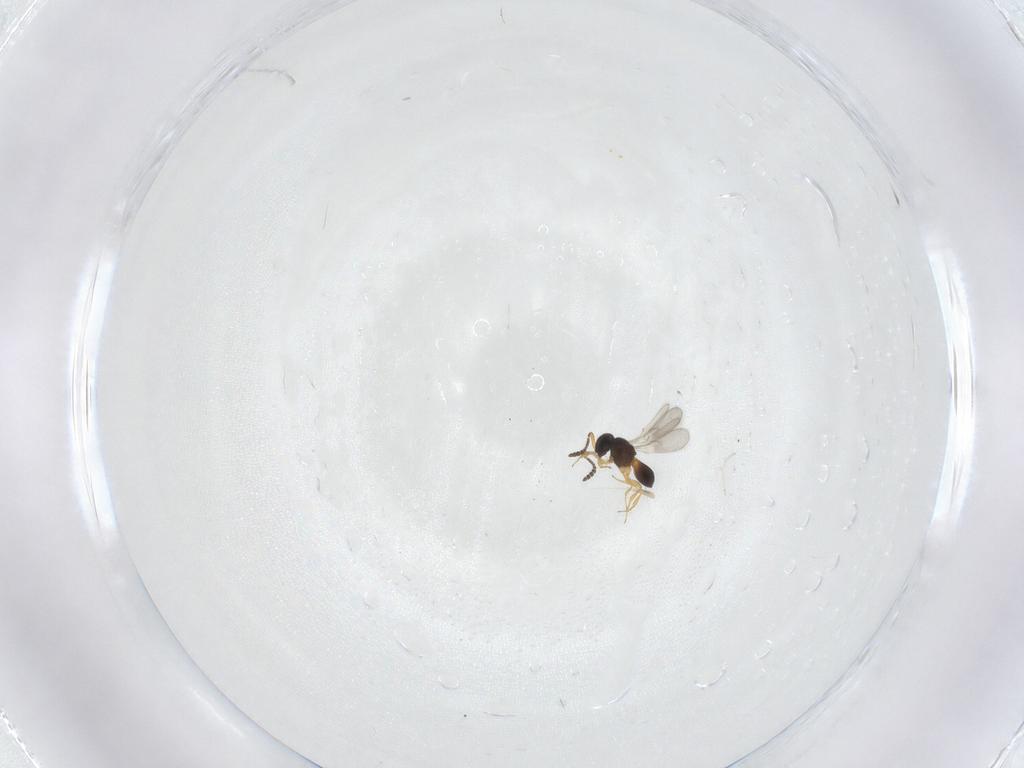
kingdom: Animalia
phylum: Arthropoda
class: Insecta
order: Hymenoptera
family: Scelionidae
